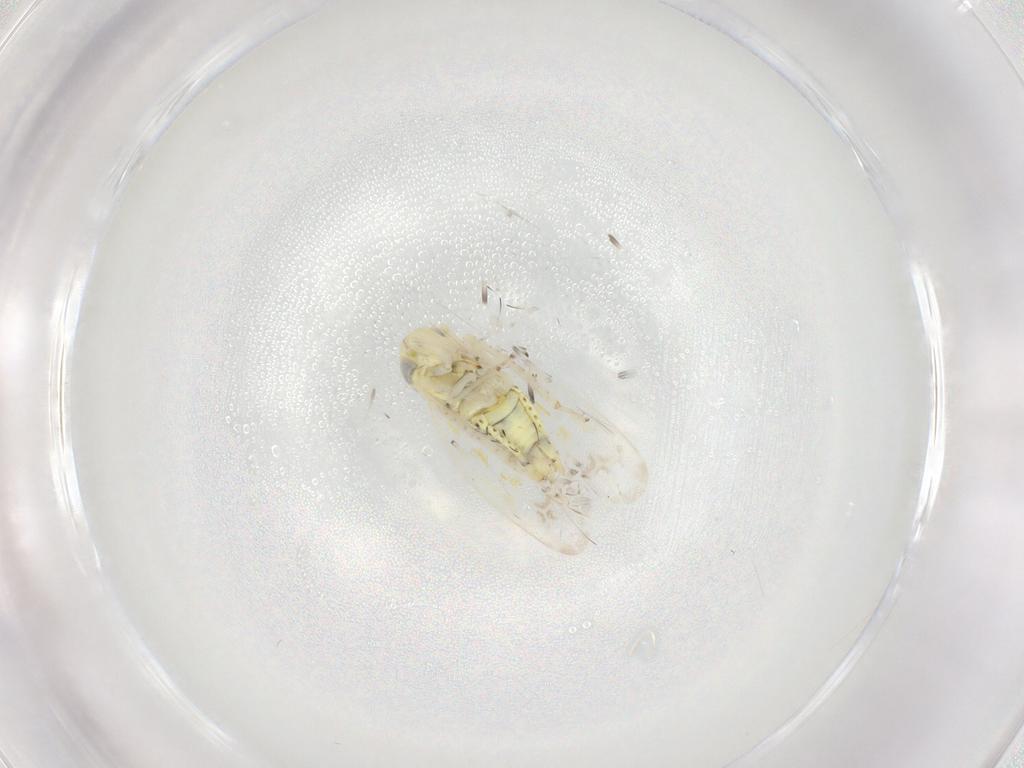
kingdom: Animalia
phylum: Arthropoda
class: Insecta
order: Hemiptera
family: Cicadellidae
